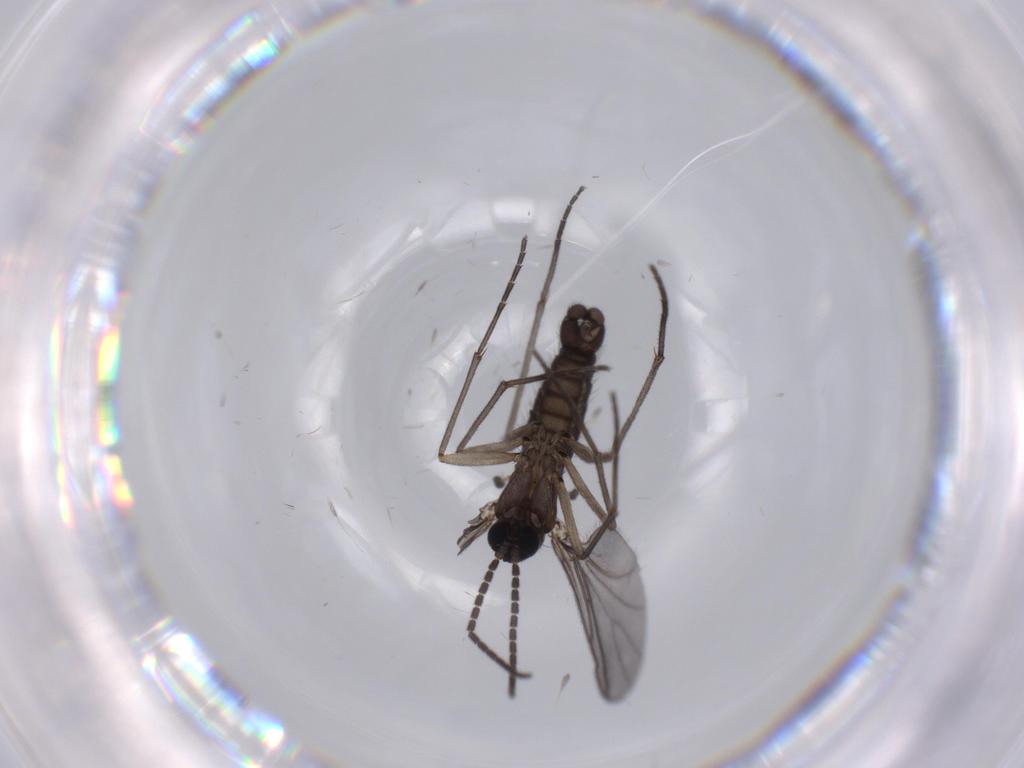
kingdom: Animalia
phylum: Arthropoda
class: Insecta
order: Diptera
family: Sciaridae
